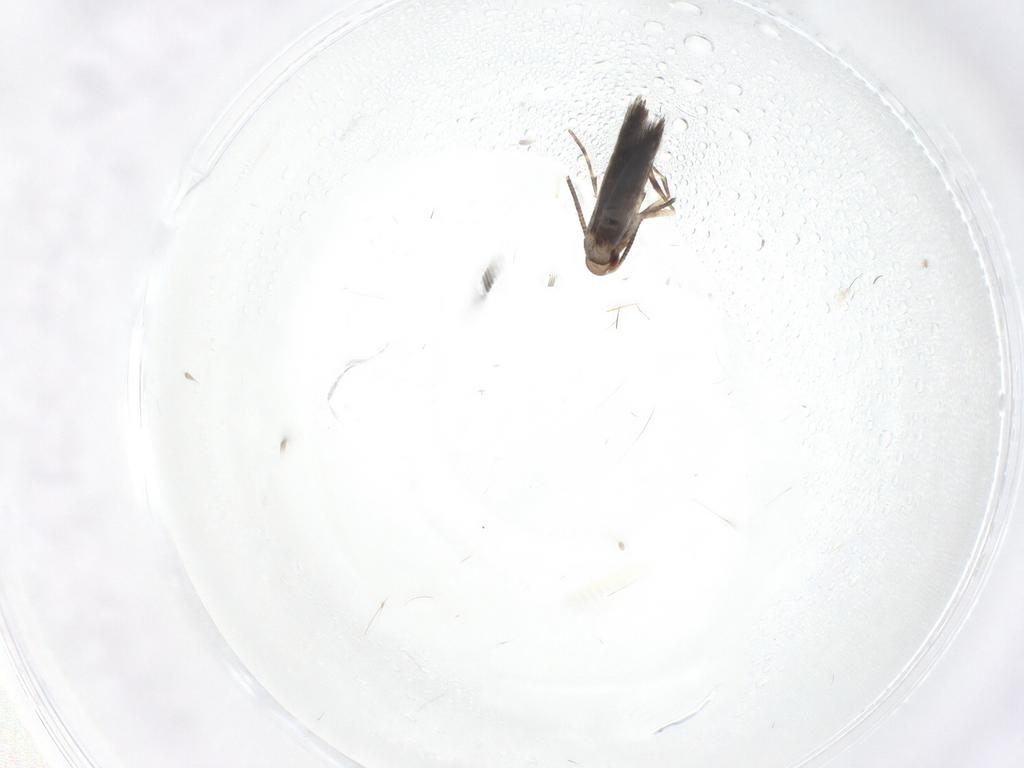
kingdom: Animalia
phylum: Arthropoda
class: Insecta
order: Lepidoptera
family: Gracillariidae
